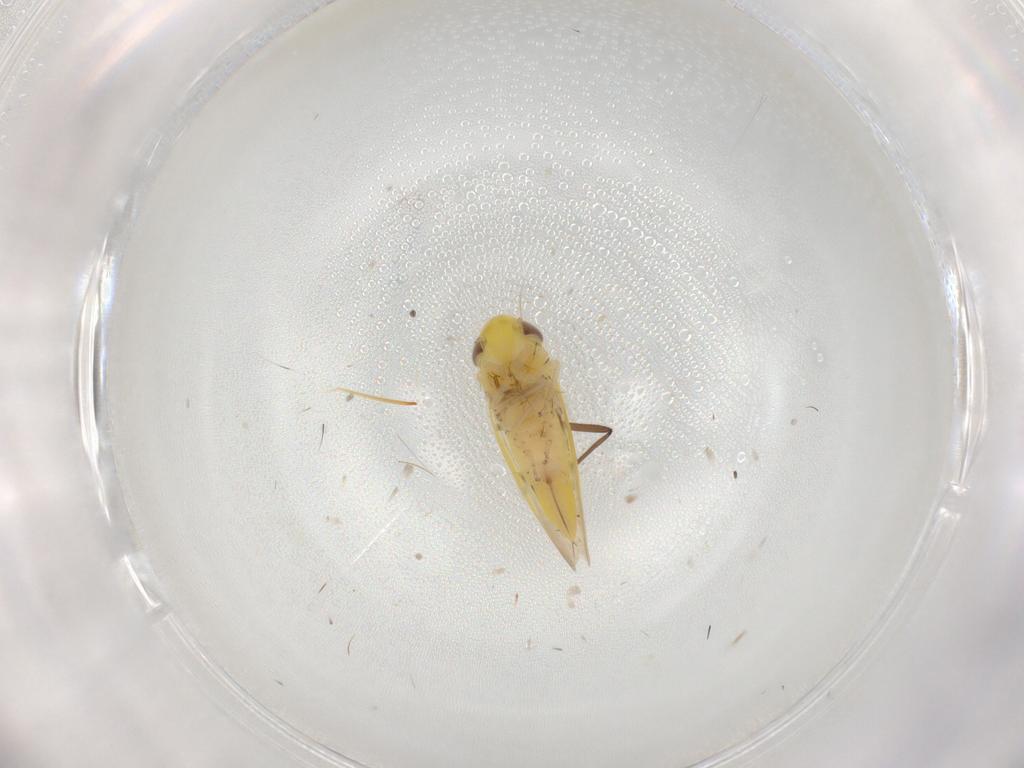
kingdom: Animalia
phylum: Arthropoda
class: Insecta
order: Hemiptera
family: Cicadellidae
